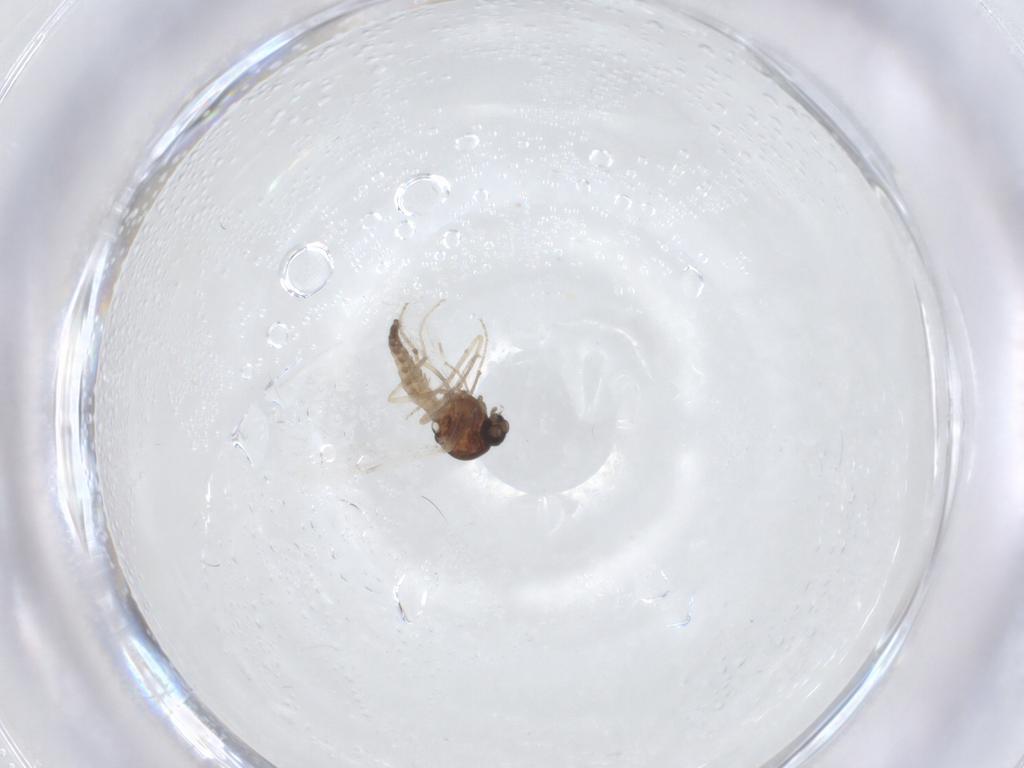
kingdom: Animalia
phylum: Arthropoda
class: Insecta
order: Diptera
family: Ceratopogonidae
